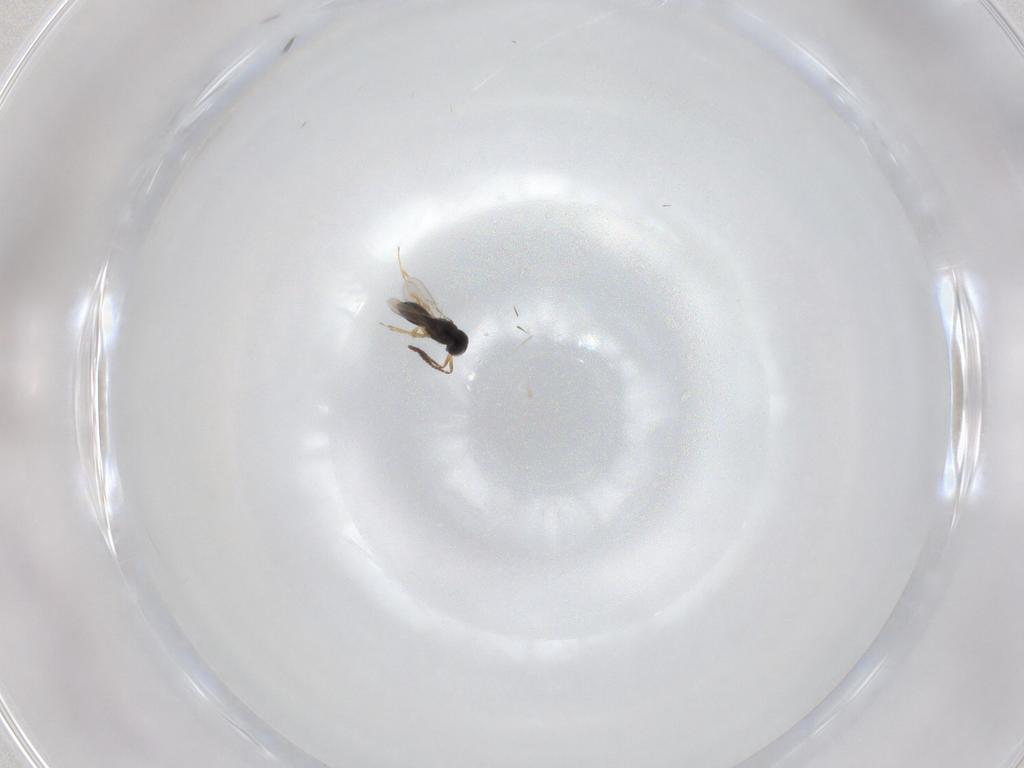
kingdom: Animalia
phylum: Arthropoda
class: Insecta
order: Hymenoptera
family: Scelionidae
